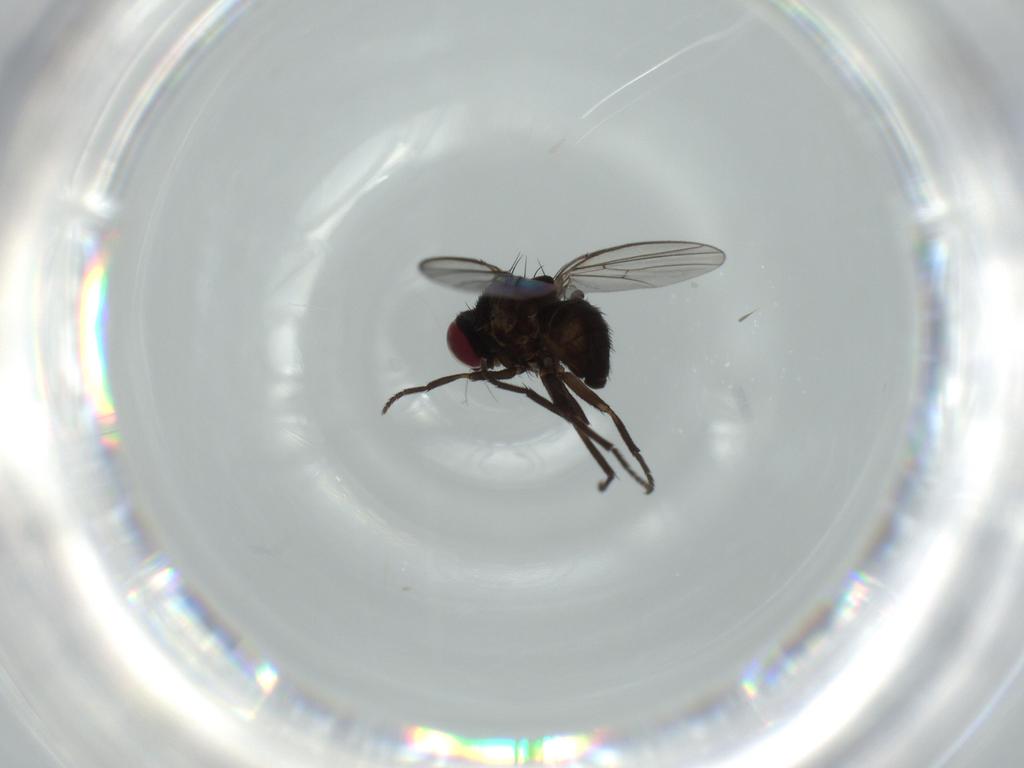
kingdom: Animalia
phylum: Arthropoda
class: Insecta
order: Diptera
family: Agromyzidae
